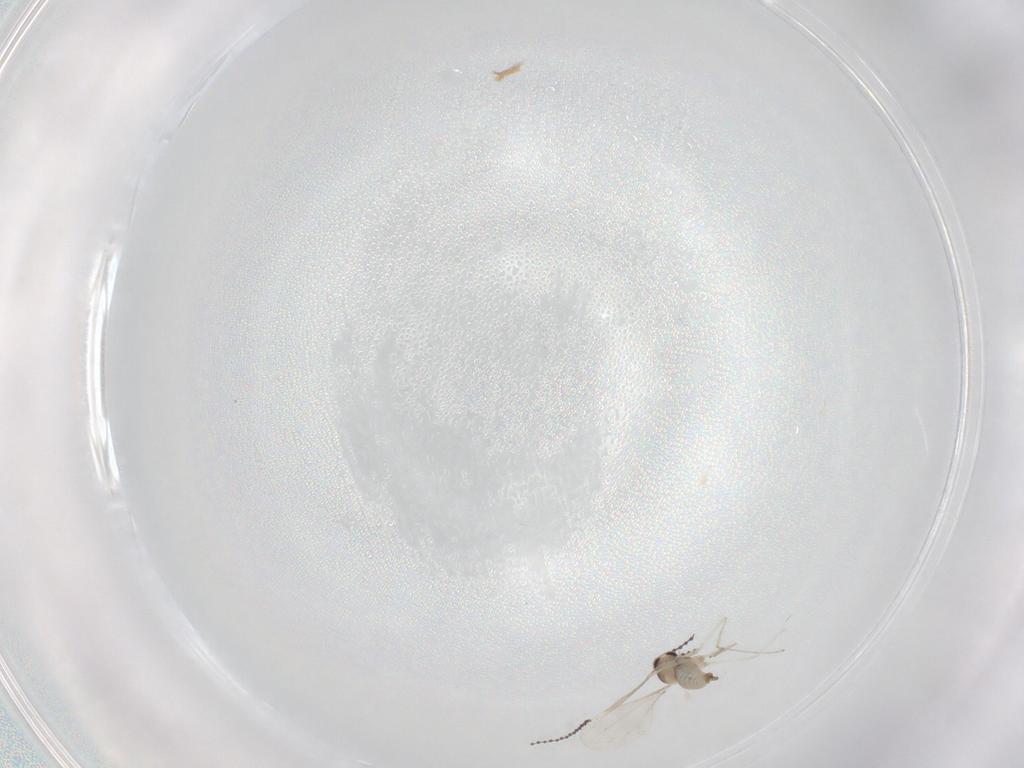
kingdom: Animalia
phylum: Arthropoda
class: Insecta
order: Diptera
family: Cecidomyiidae
